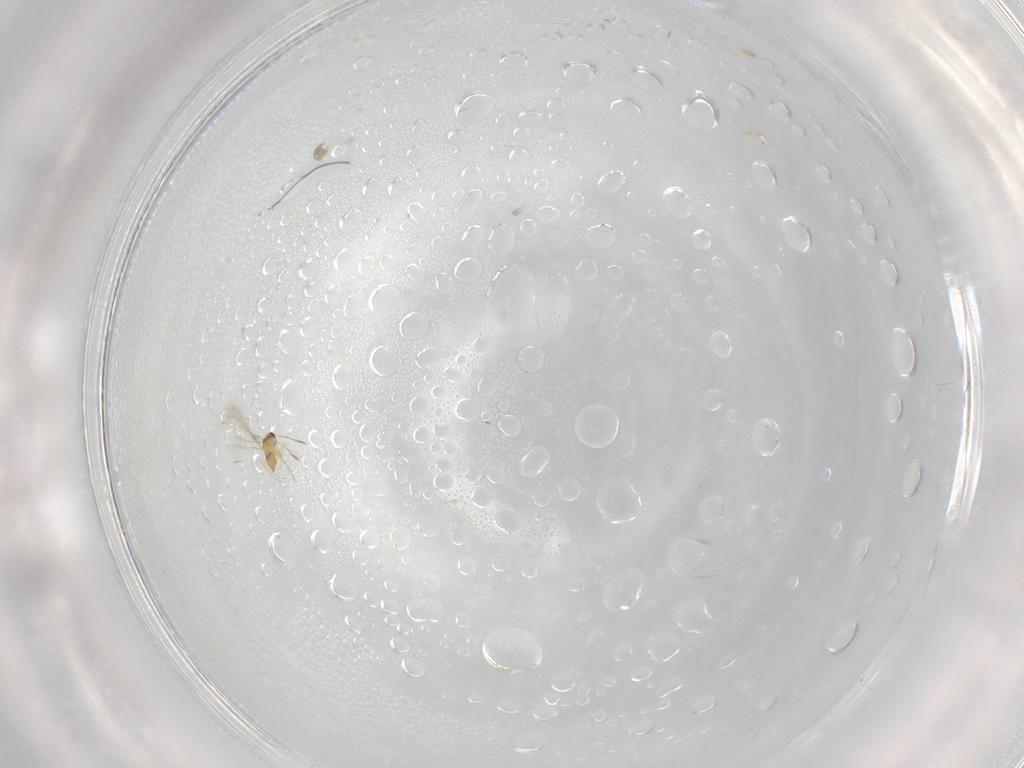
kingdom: Animalia
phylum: Arthropoda
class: Insecta
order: Hymenoptera
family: Mymaridae
